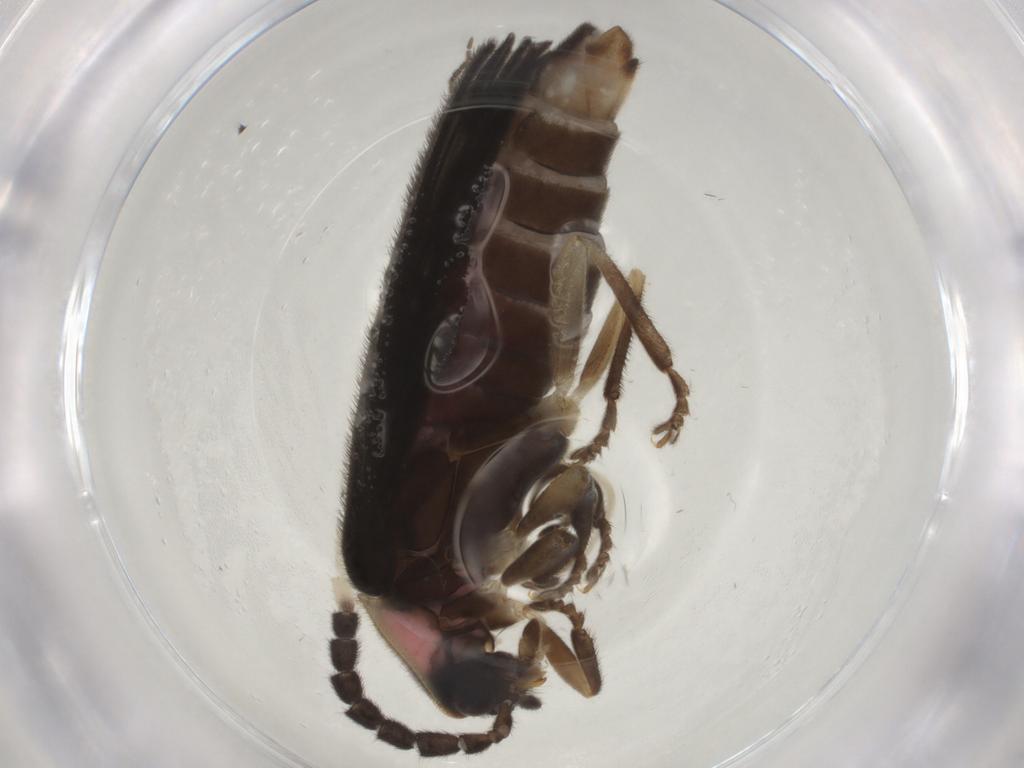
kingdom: Animalia
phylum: Arthropoda
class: Insecta
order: Coleoptera
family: Lampyridae
